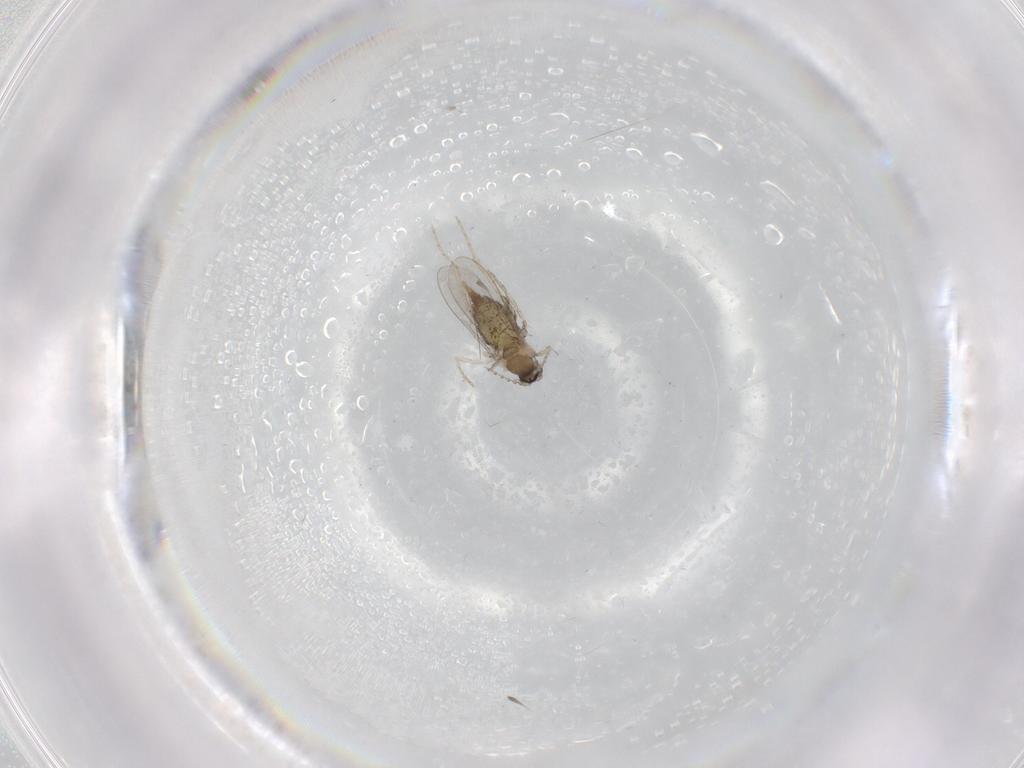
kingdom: Animalia
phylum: Arthropoda
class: Insecta
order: Diptera
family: Cecidomyiidae
